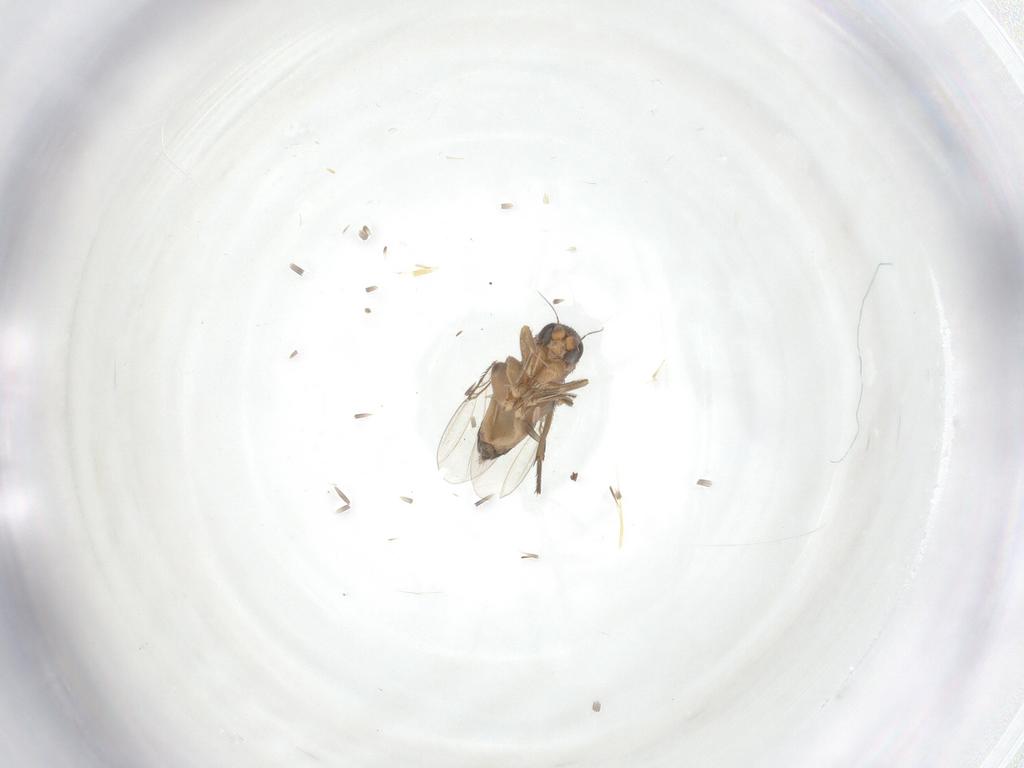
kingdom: Animalia
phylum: Arthropoda
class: Insecta
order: Diptera
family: Phoridae
